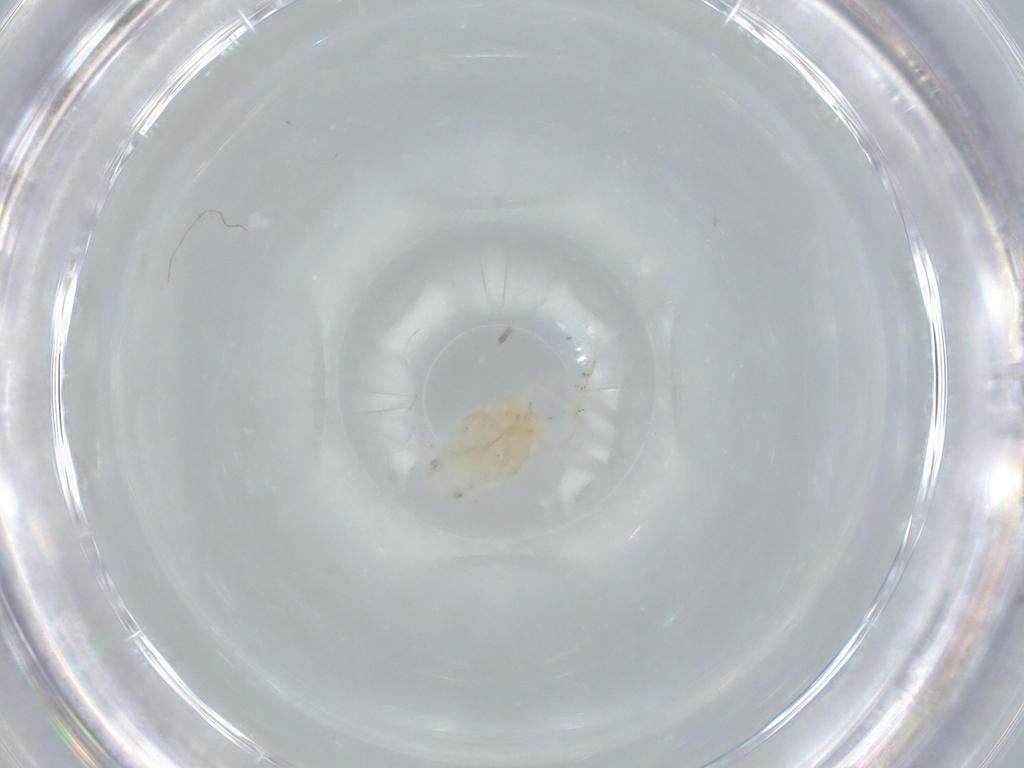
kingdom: Animalia
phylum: Arthropoda
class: Insecta
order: Hemiptera
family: Flatidae
